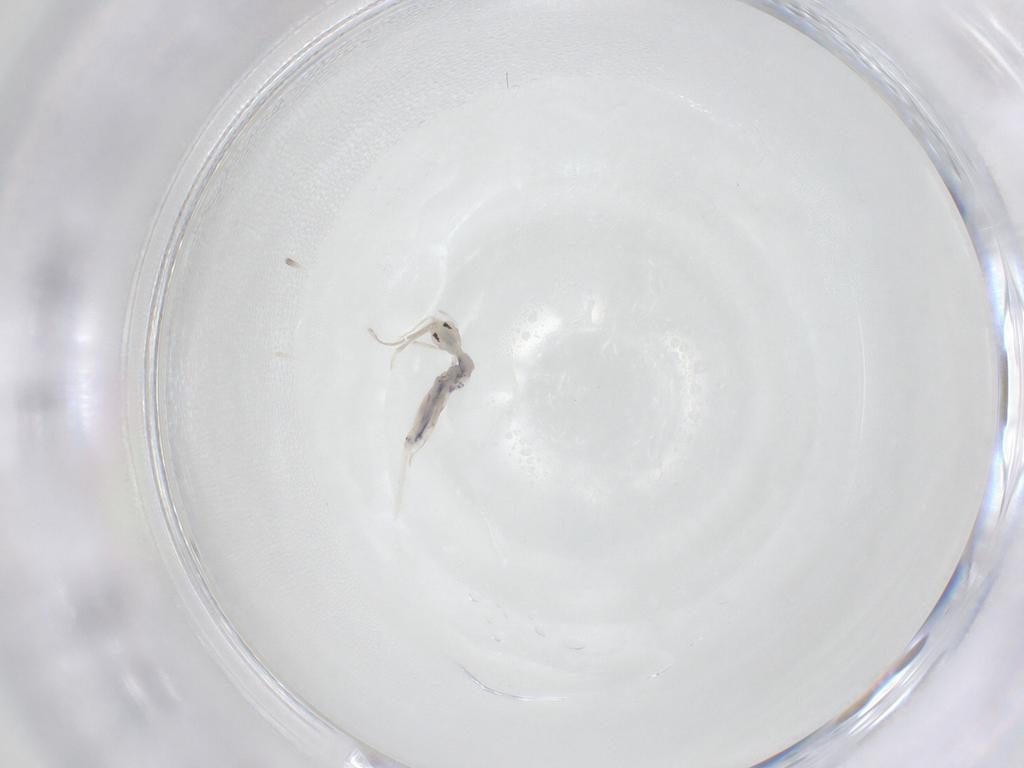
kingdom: Animalia
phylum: Arthropoda
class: Collembola
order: Entomobryomorpha
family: Entomobryidae
